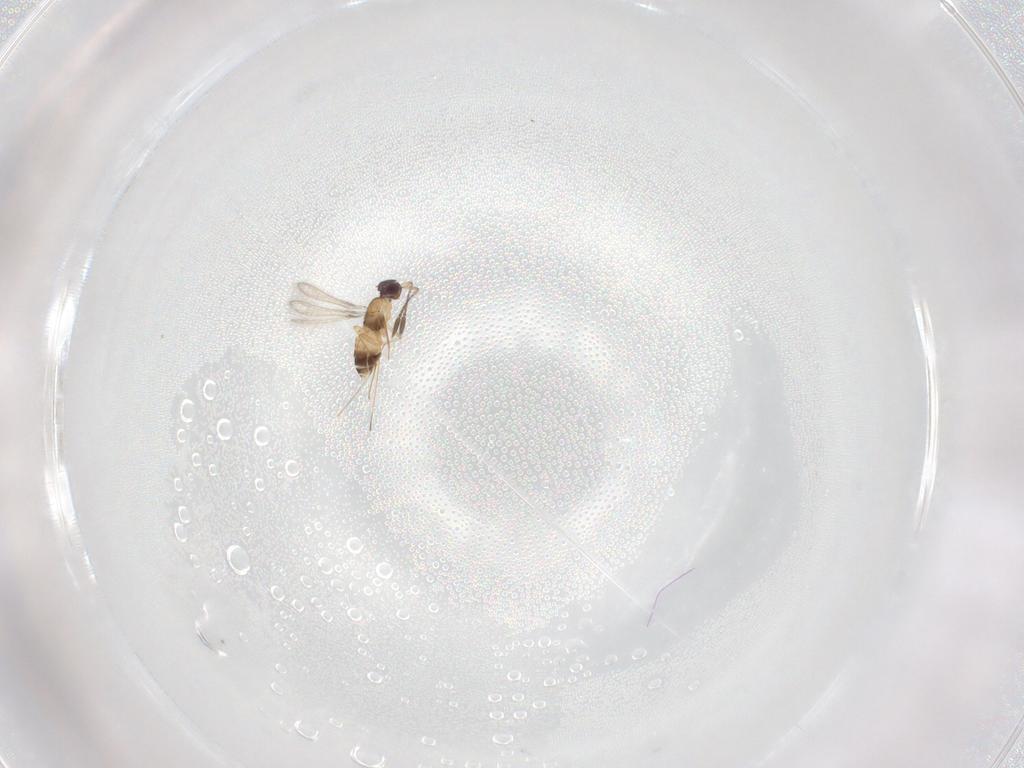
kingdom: Animalia
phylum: Arthropoda
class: Insecta
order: Hymenoptera
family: Mymaridae
